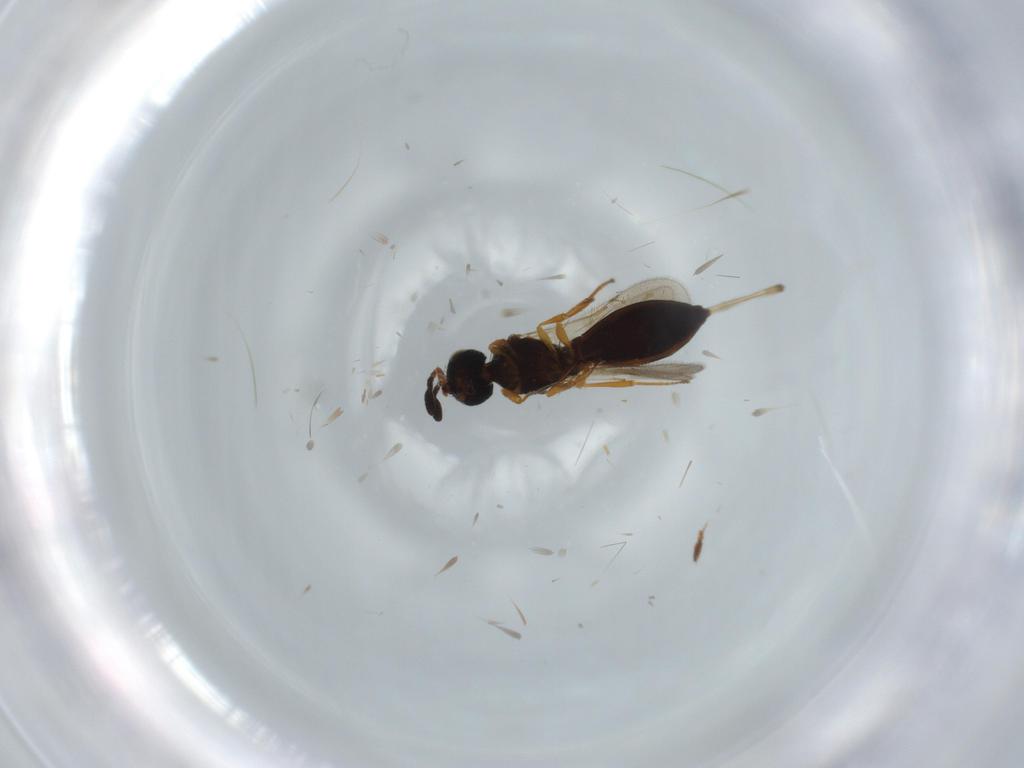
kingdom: Animalia
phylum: Arthropoda
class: Insecta
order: Hymenoptera
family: Scelionidae
